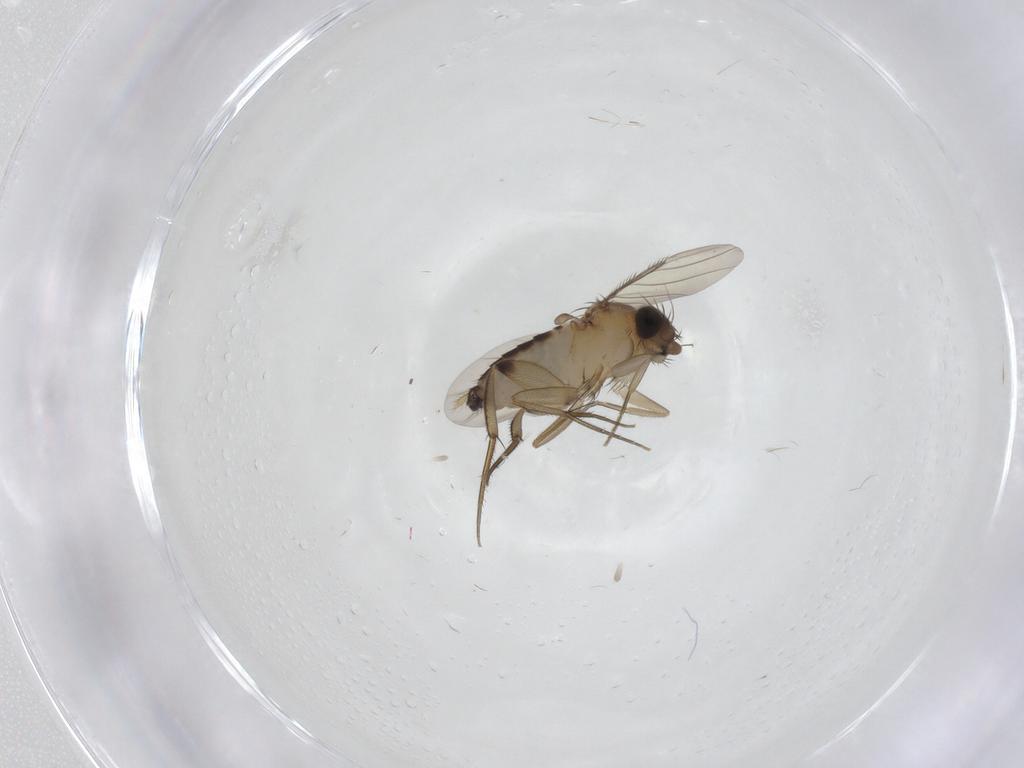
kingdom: Animalia
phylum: Arthropoda
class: Insecta
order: Diptera
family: Phoridae
